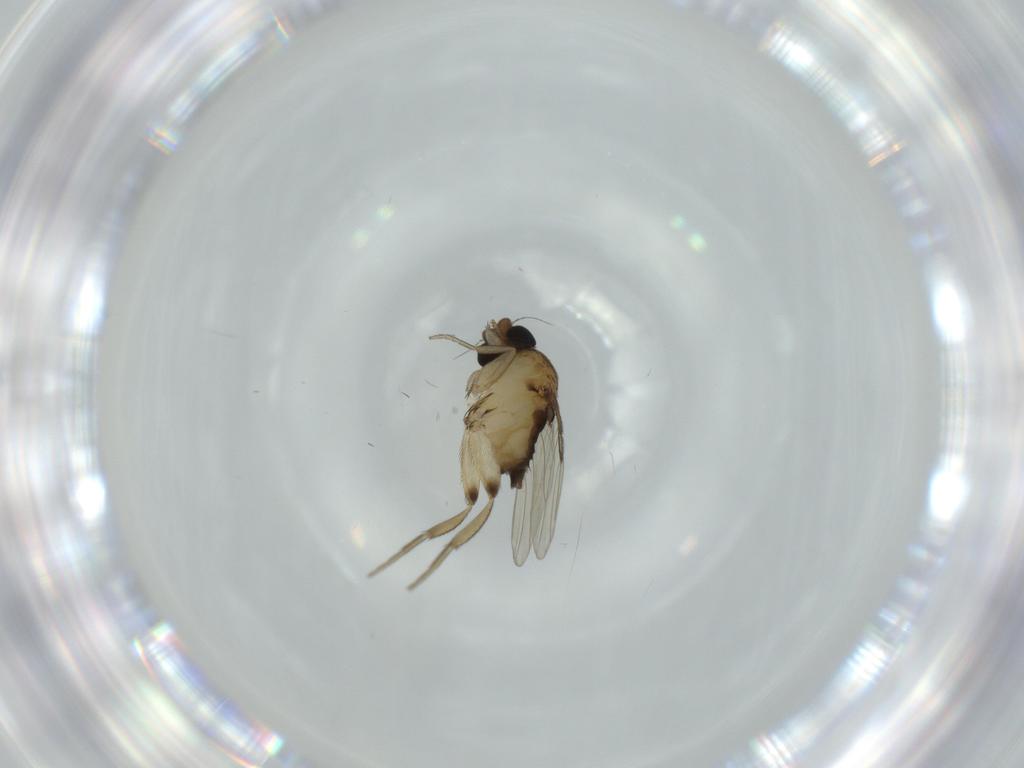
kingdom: Animalia
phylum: Arthropoda
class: Insecta
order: Diptera
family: Phoridae
